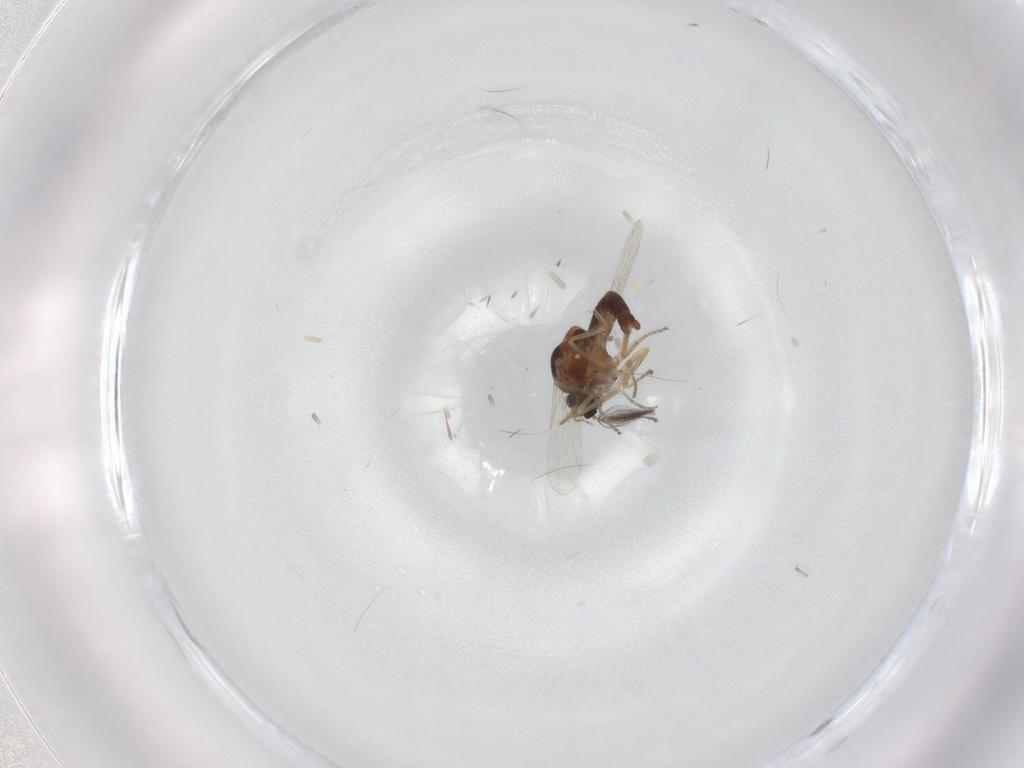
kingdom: Animalia
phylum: Arthropoda
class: Insecta
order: Diptera
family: Ceratopogonidae
